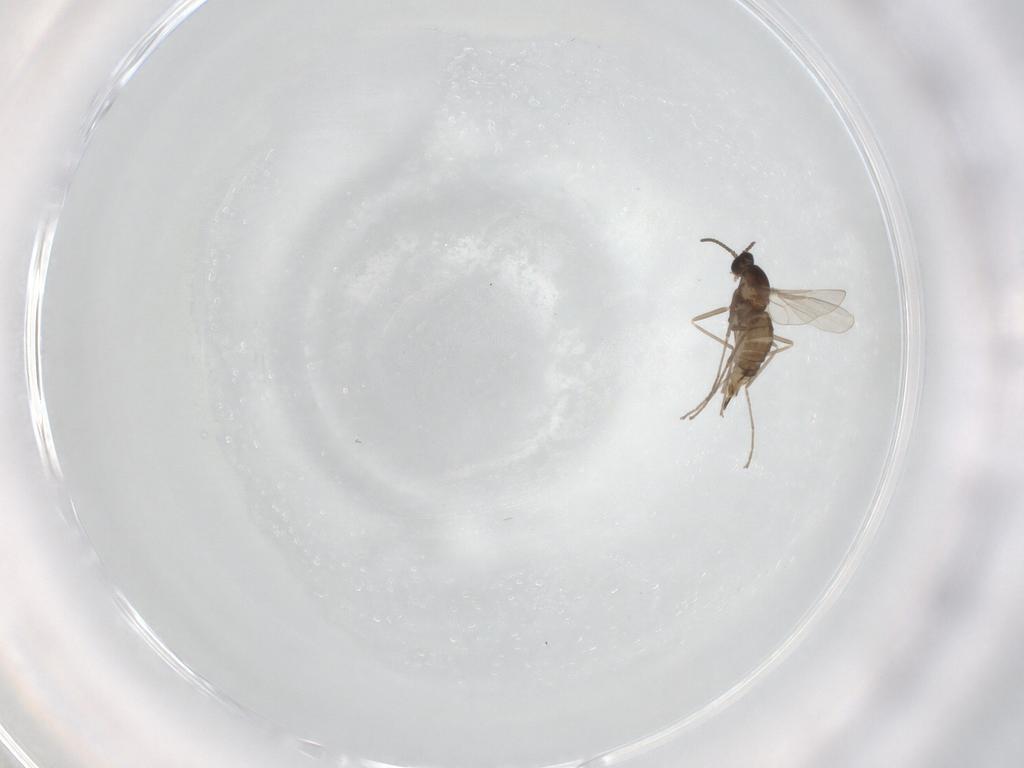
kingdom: Animalia
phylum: Arthropoda
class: Insecta
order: Diptera
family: Cecidomyiidae
